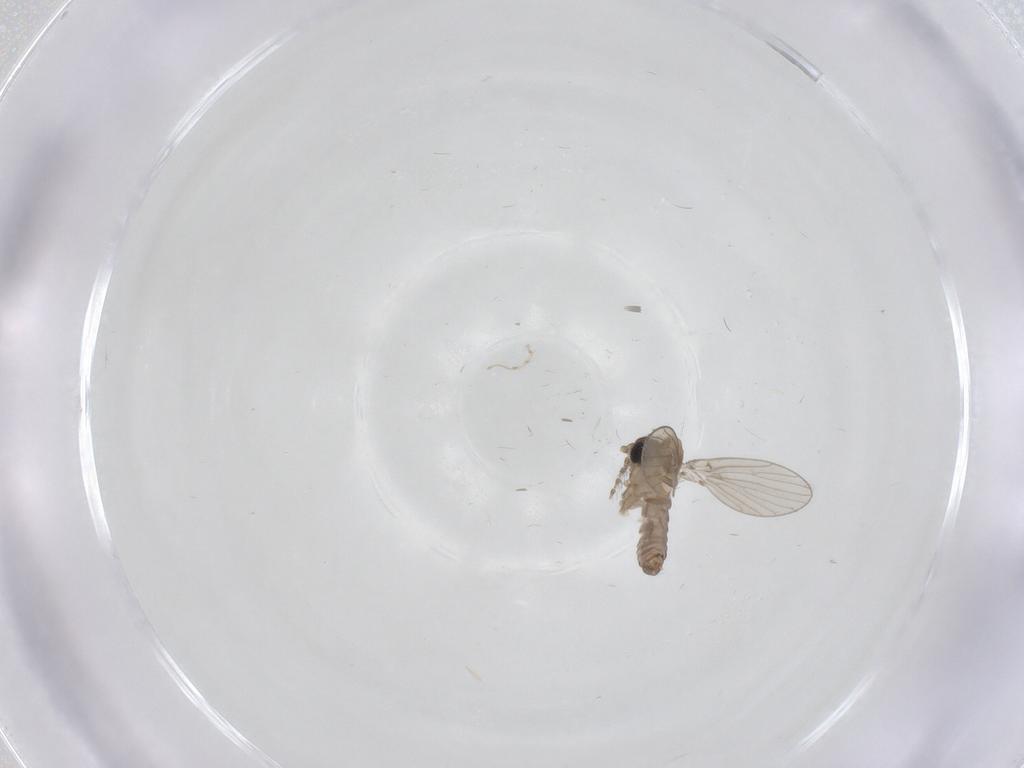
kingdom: Animalia
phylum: Arthropoda
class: Insecta
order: Diptera
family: Cecidomyiidae
